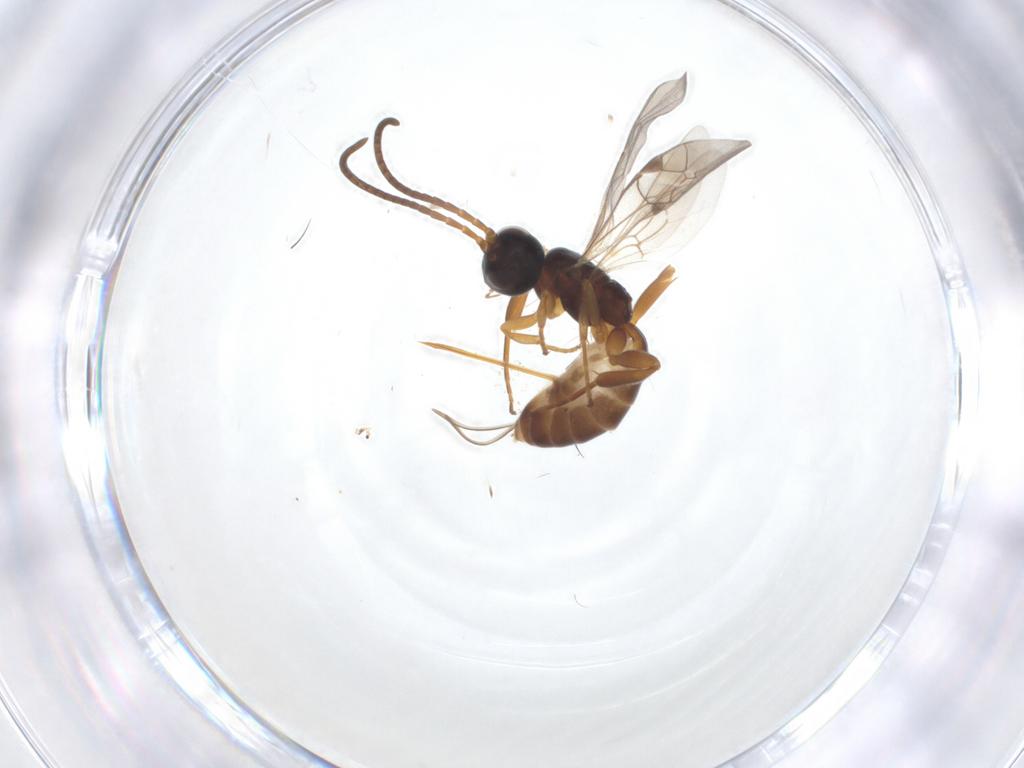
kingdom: Animalia
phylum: Arthropoda
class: Insecta
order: Hymenoptera
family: Ichneumonidae
